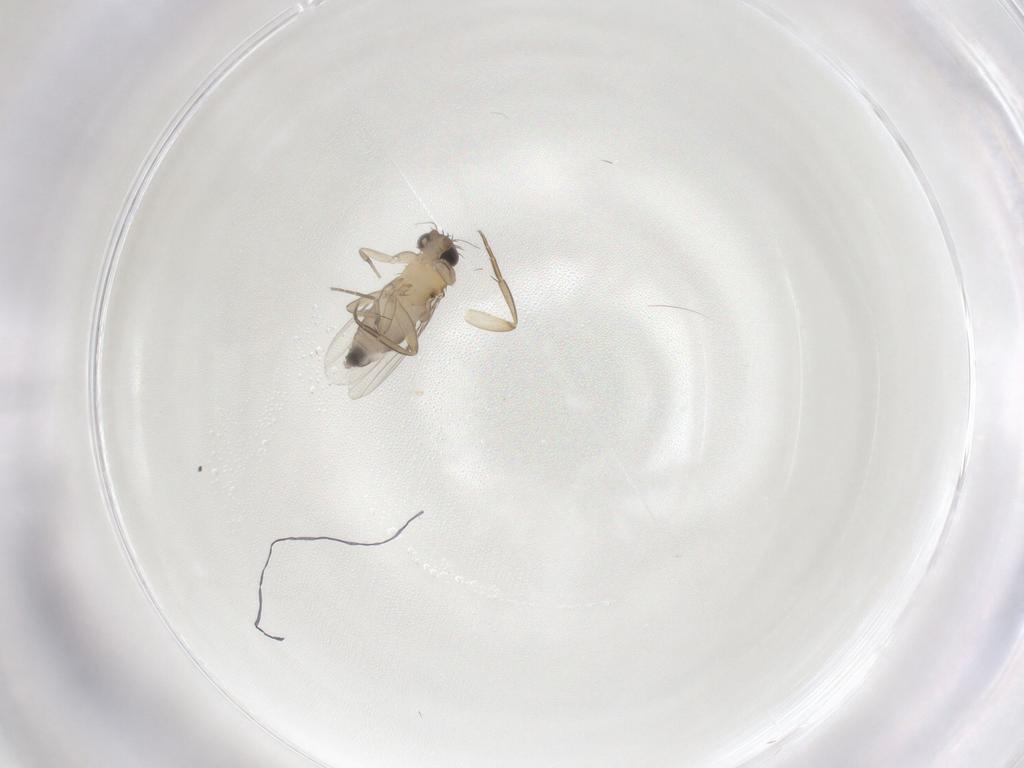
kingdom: Animalia
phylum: Arthropoda
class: Insecta
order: Diptera
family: Phoridae
